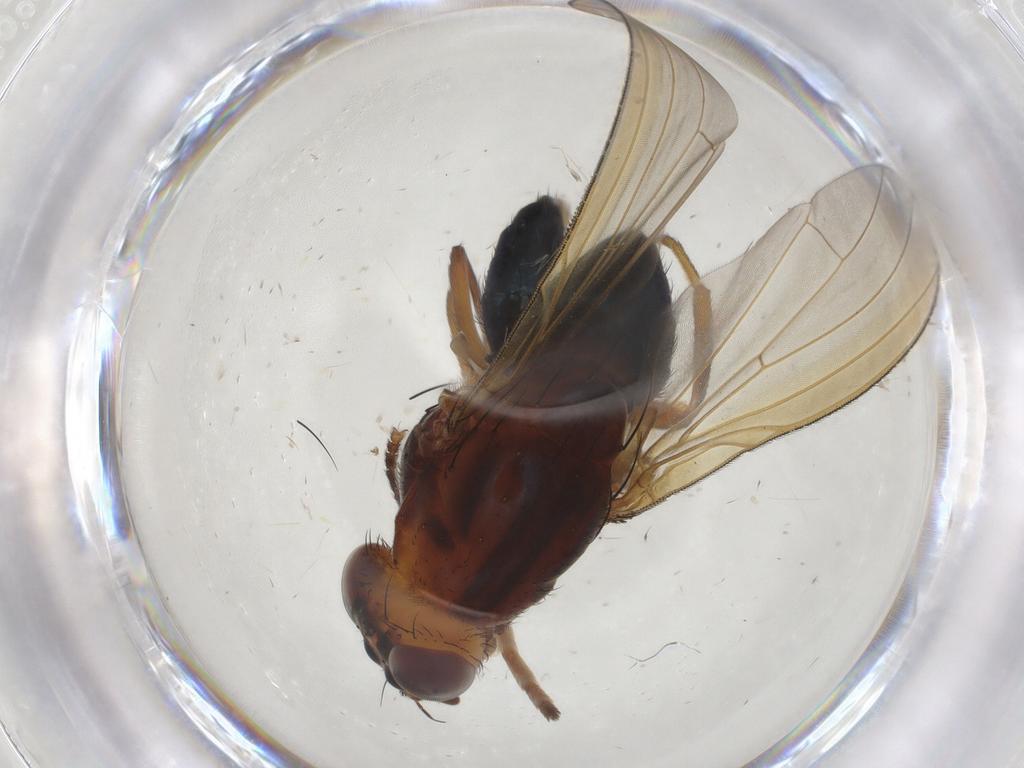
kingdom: Animalia
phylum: Arthropoda
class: Insecta
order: Diptera
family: Lauxaniidae
